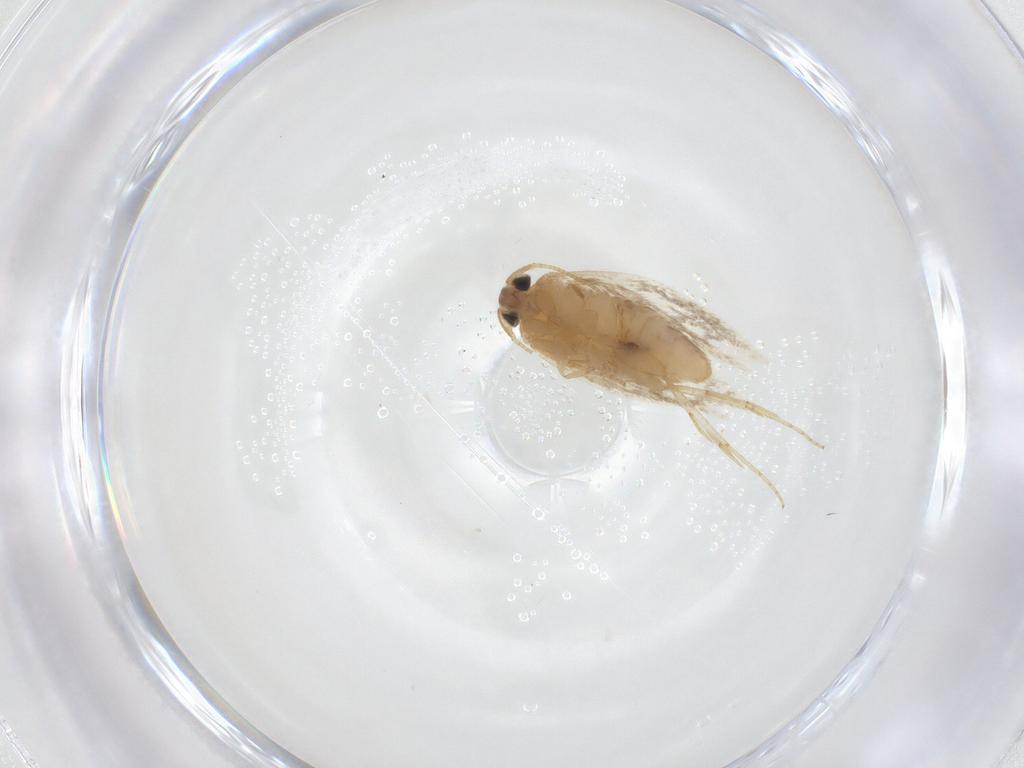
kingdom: Animalia
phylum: Arthropoda
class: Insecta
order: Lepidoptera
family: Nepticulidae
